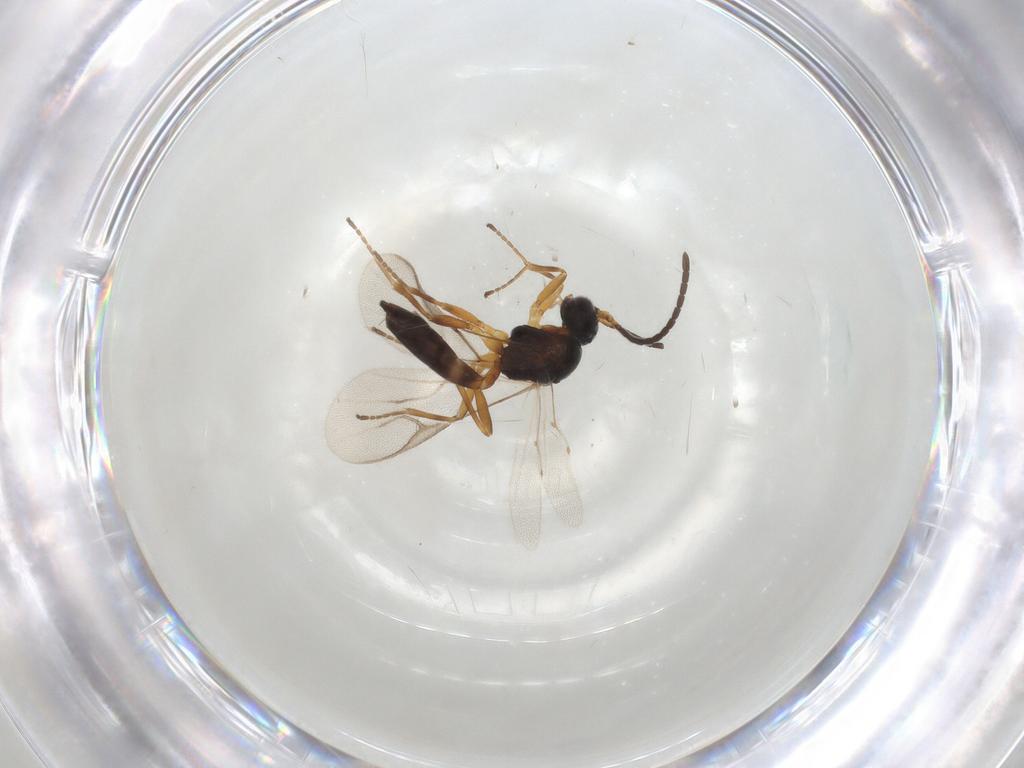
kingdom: Animalia
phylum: Arthropoda
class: Insecta
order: Hymenoptera
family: Braconidae
